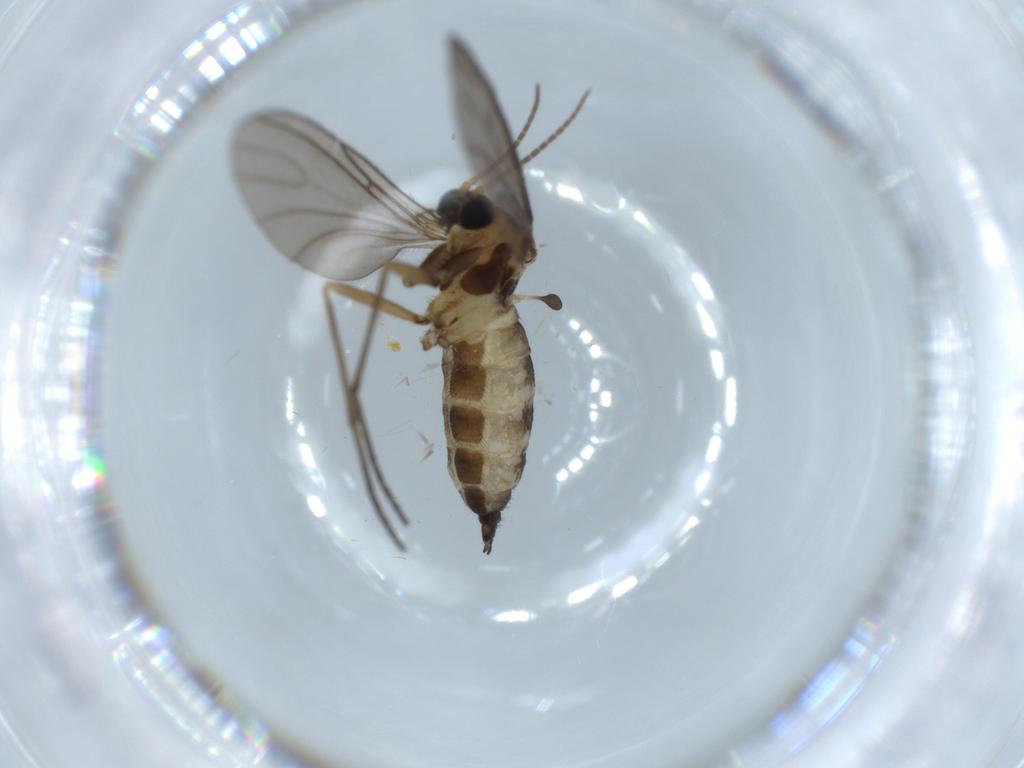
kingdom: Animalia
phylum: Arthropoda
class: Insecta
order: Diptera
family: Sciaridae
